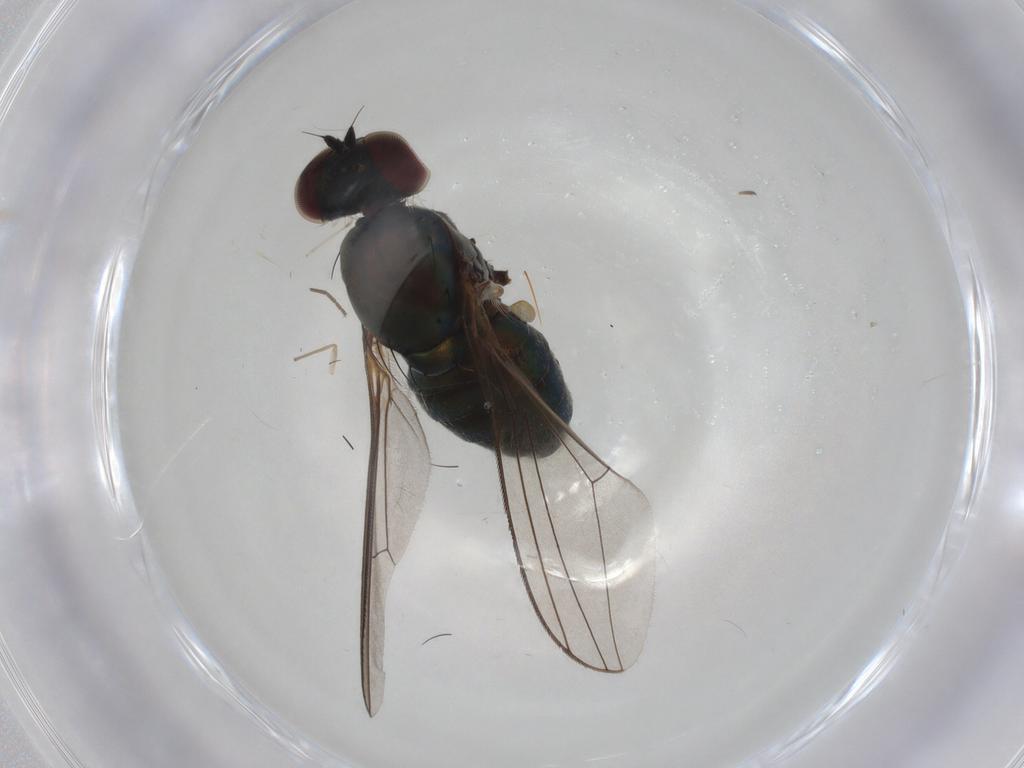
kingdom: Animalia
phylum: Arthropoda
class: Insecta
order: Diptera
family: Dolichopodidae
